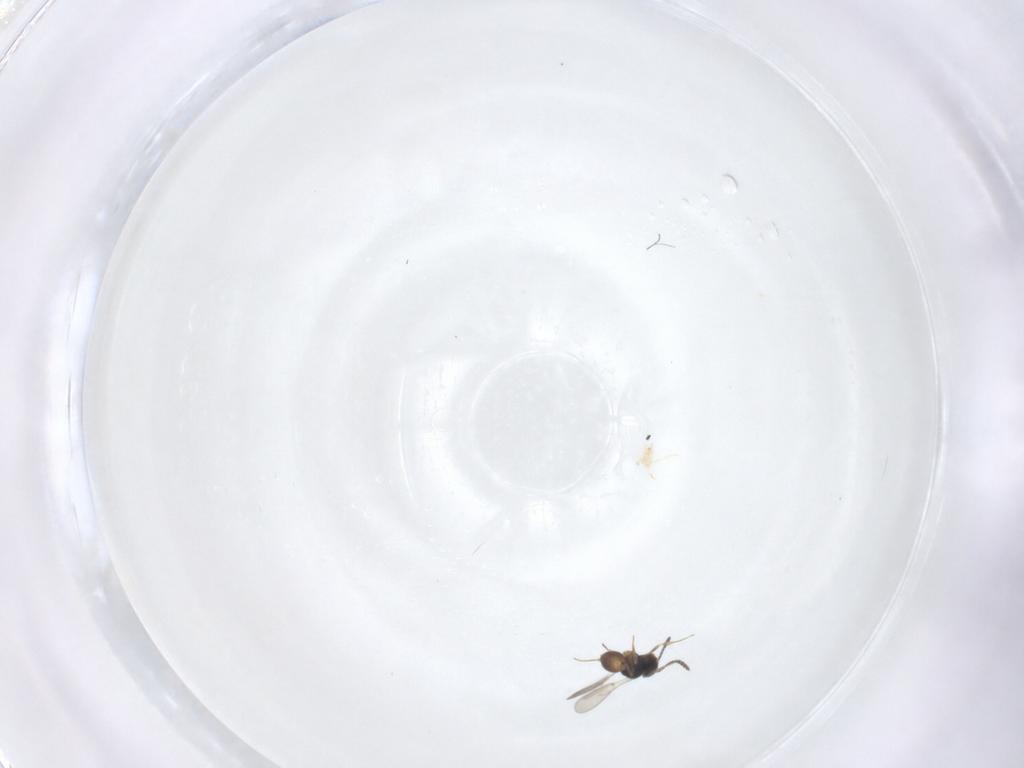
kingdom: Animalia
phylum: Arthropoda
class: Insecta
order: Hymenoptera
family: Scelionidae
